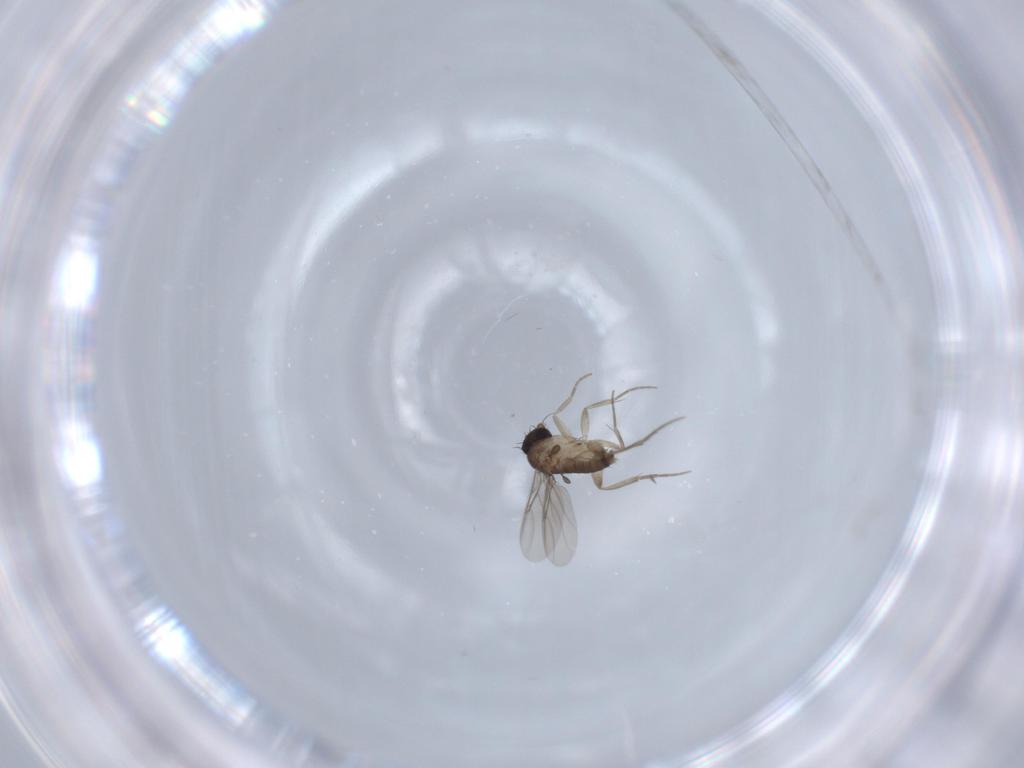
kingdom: Animalia
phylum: Arthropoda
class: Insecta
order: Diptera
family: Phoridae
